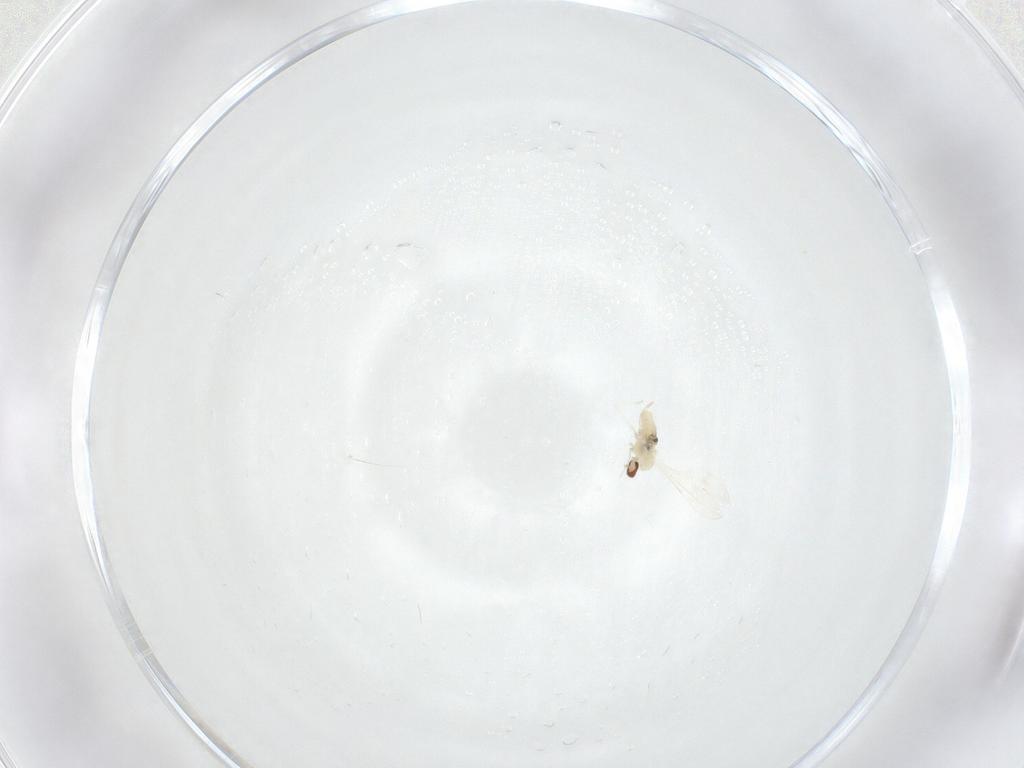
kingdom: Animalia
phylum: Arthropoda
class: Insecta
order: Diptera
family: Cecidomyiidae
